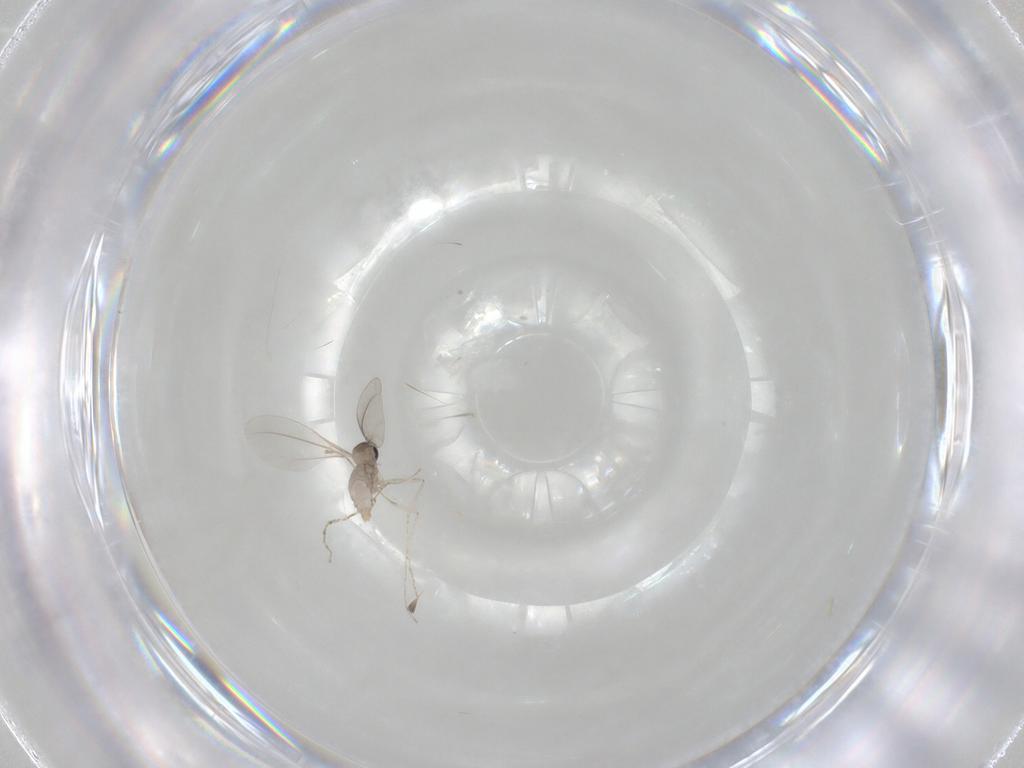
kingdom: Animalia
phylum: Arthropoda
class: Insecta
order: Diptera
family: Cecidomyiidae
